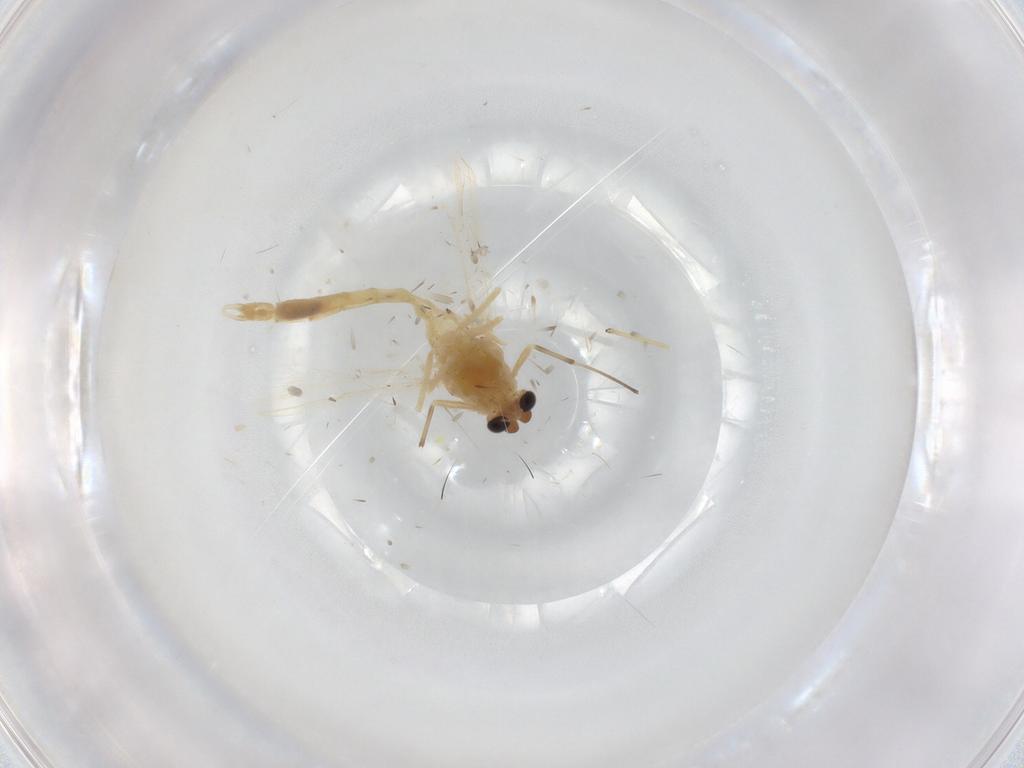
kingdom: Animalia
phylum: Arthropoda
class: Insecta
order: Diptera
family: Chironomidae
